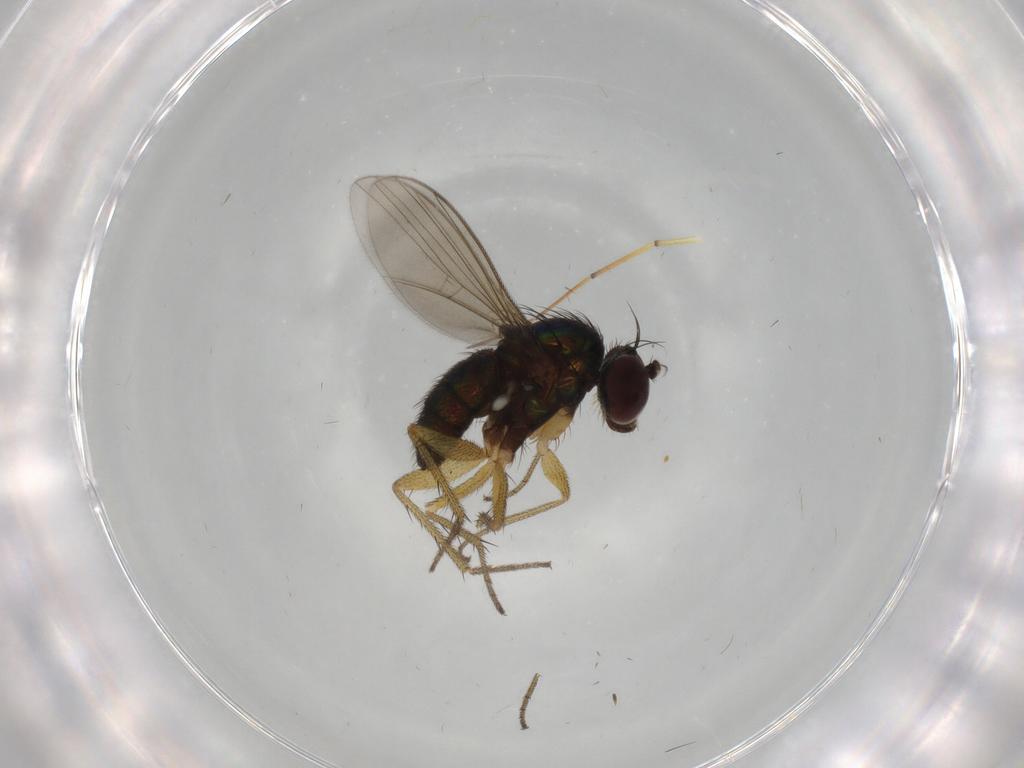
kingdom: Animalia
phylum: Arthropoda
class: Insecta
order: Diptera
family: Dolichopodidae
